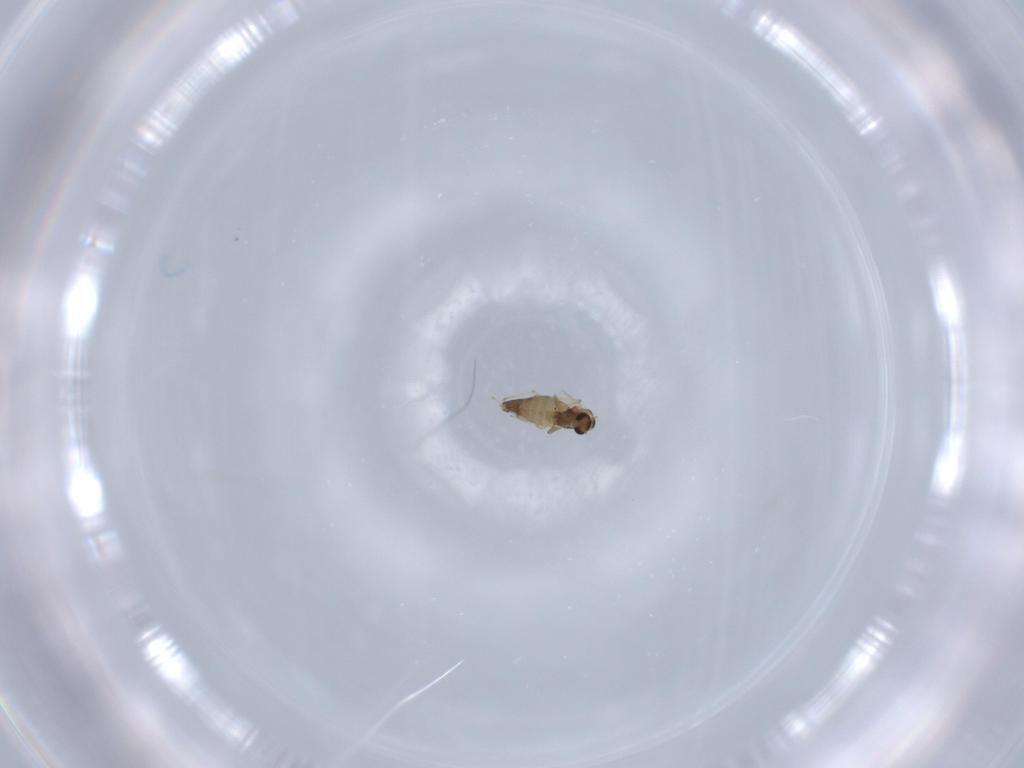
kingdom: Animalia
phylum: Arthropoda
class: Insecta
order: Diptera
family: Chironomidae
